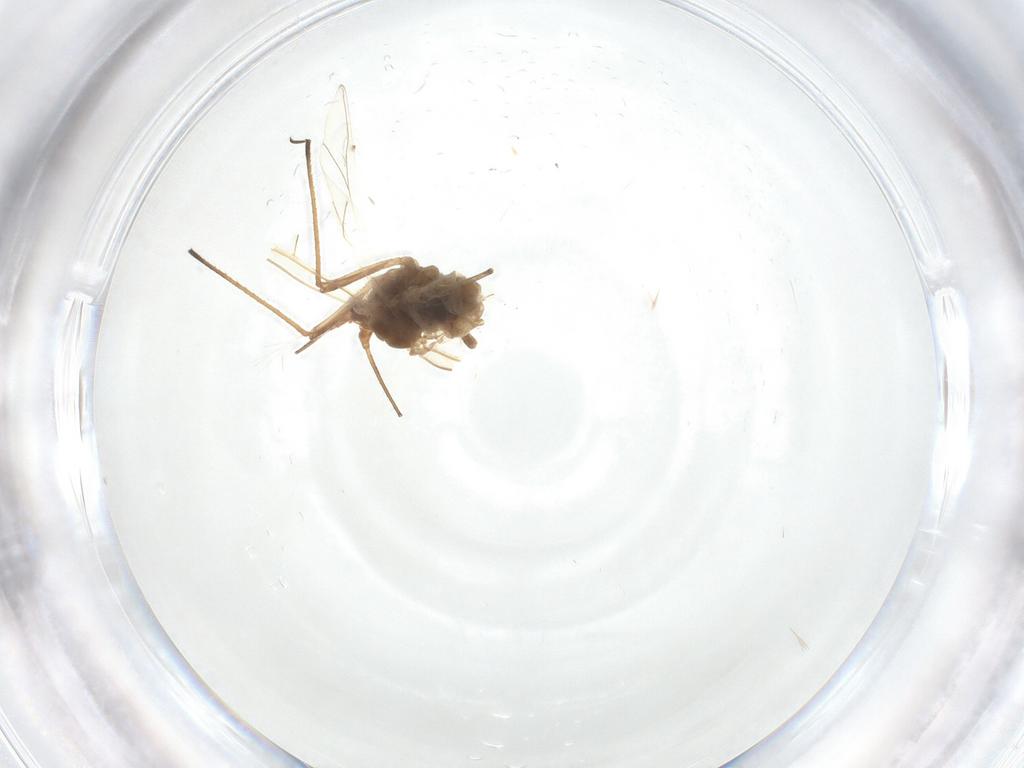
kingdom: Animalia
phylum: Arthropoda
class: Insecta
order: Hemiptera
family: Aphididae
